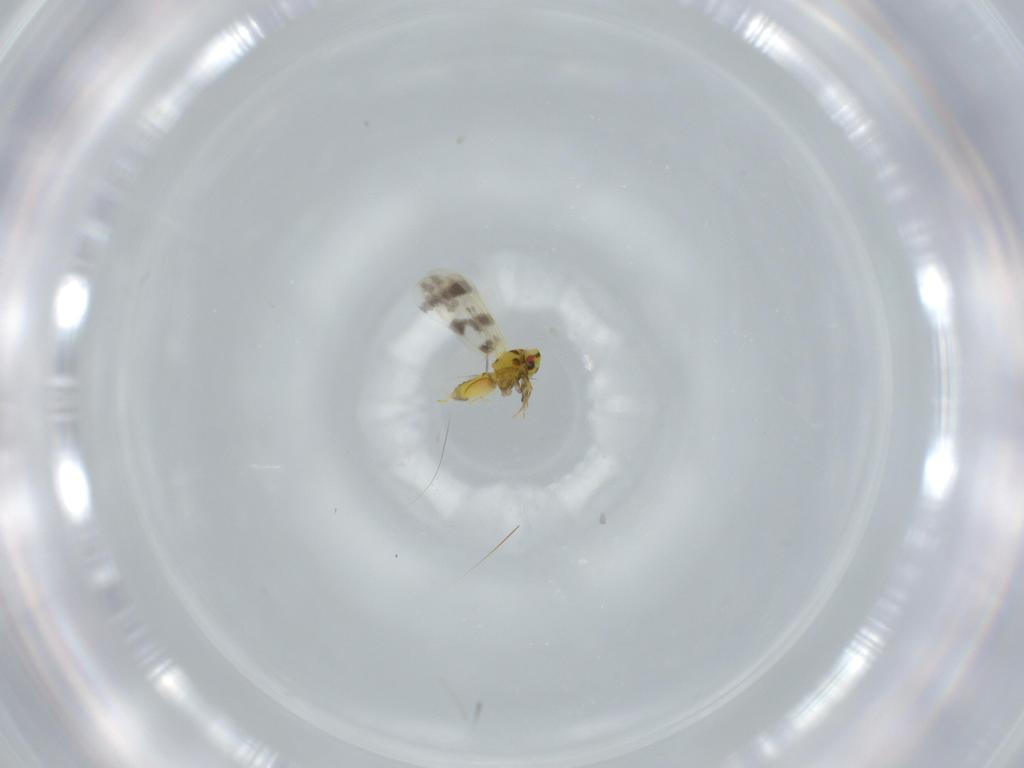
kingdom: Animalia
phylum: Arthropoda
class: Insecta
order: Hemiptera
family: Aleyrodidae
